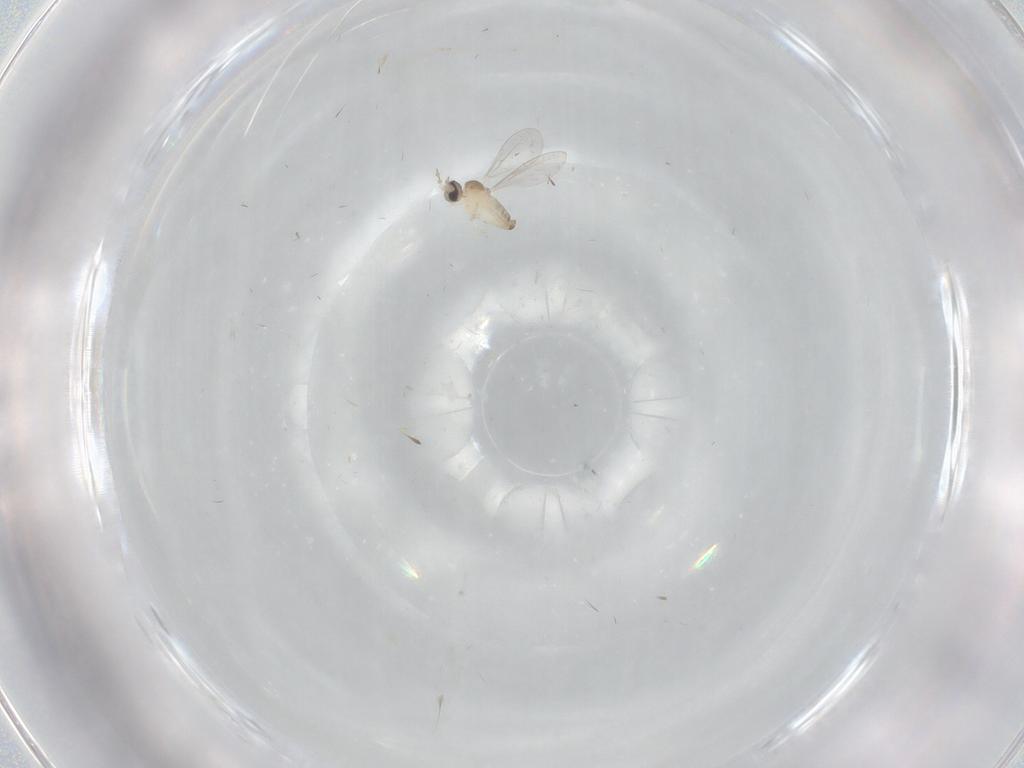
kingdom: Animalia
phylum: Arthropoda
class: Insecta
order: Diptera
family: Cecidomyiidae
